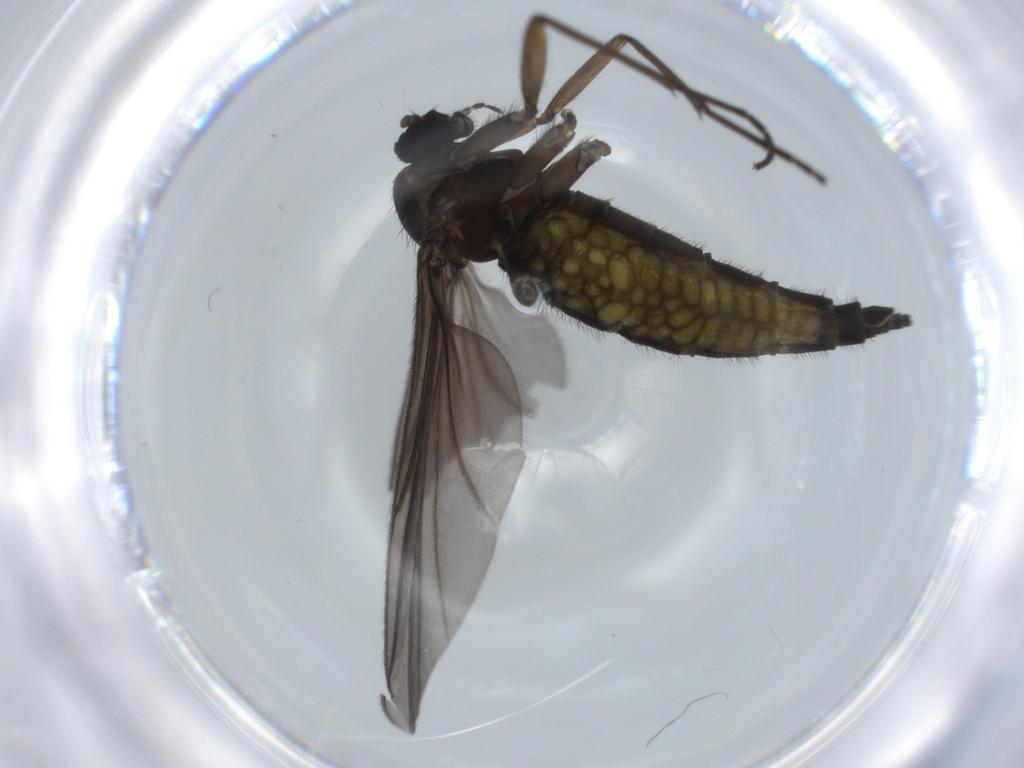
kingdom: Animalia
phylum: Arthropoda
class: Insecta
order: Diptera
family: Sciaridae
